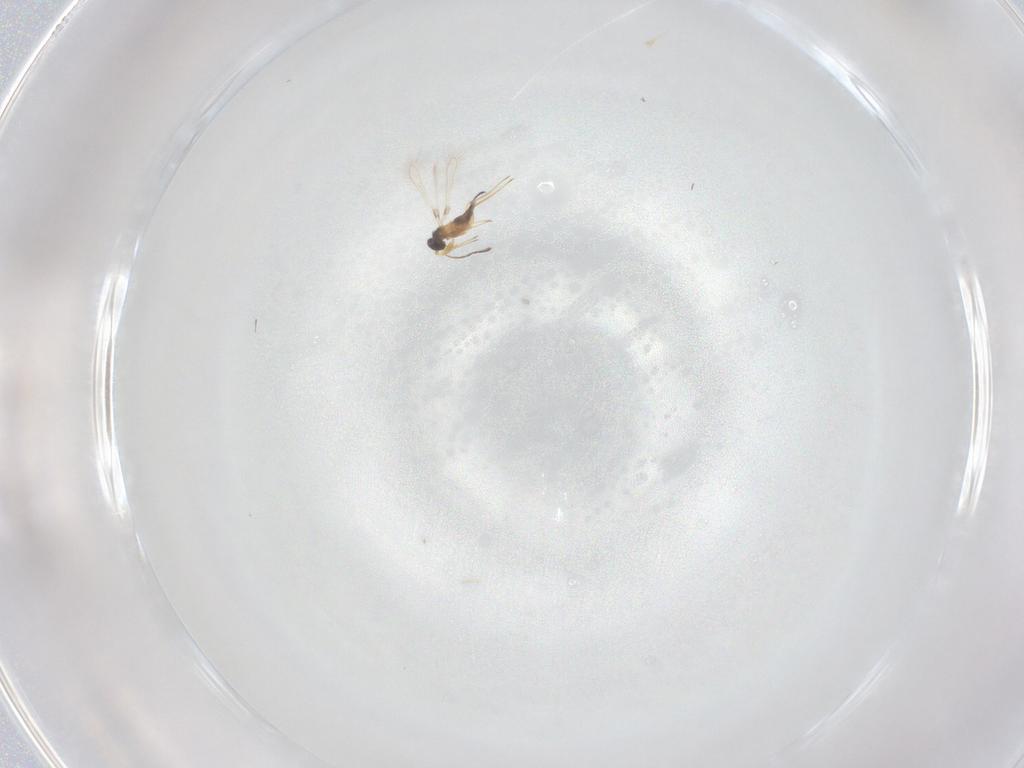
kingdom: Animalia
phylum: Arthropoda
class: Insecta
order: Hymenoptera
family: Mymaridae
